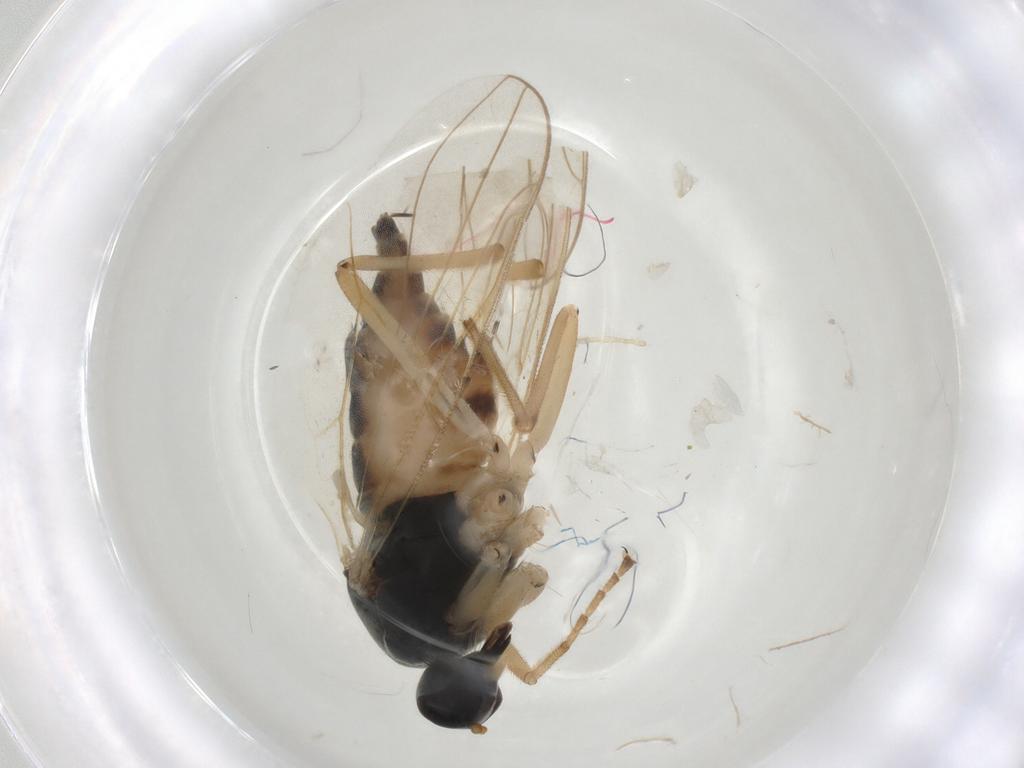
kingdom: Animalia
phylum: Arthropoda
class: Insecta
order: Diptera
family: Hybotidae
